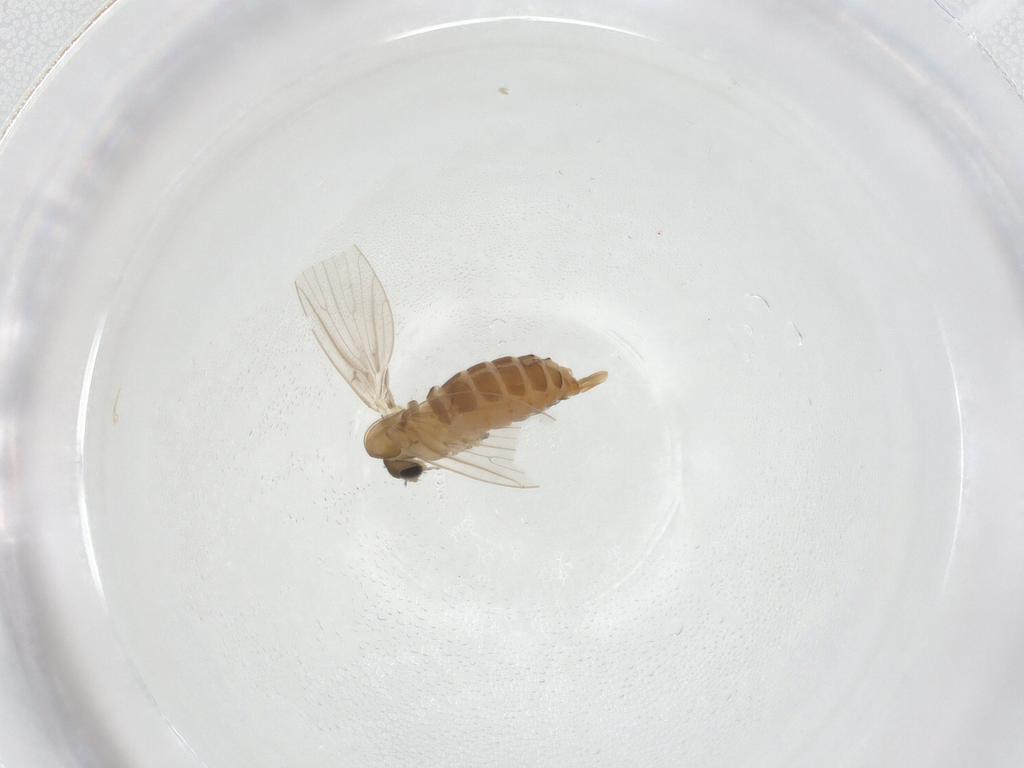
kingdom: Animalia
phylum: Arthropoda
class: Insecta
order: Diptera
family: Psychodidae
